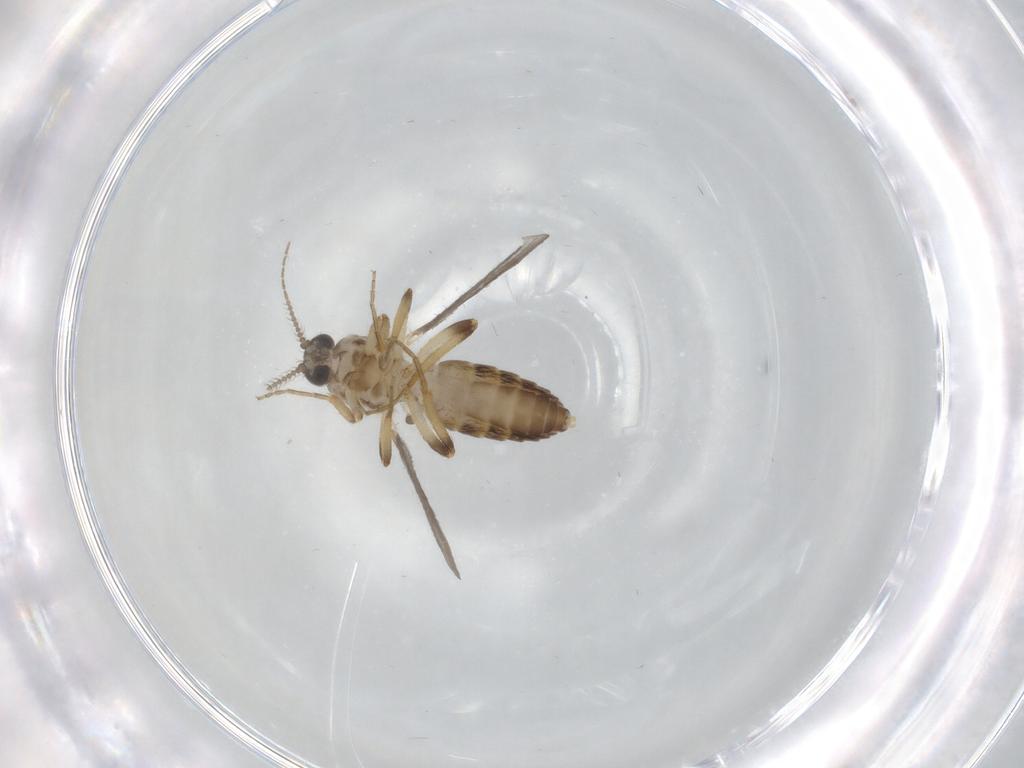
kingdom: Animalia
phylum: Arthropoda
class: Insecta
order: Diptera
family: Ceratopogonidae
